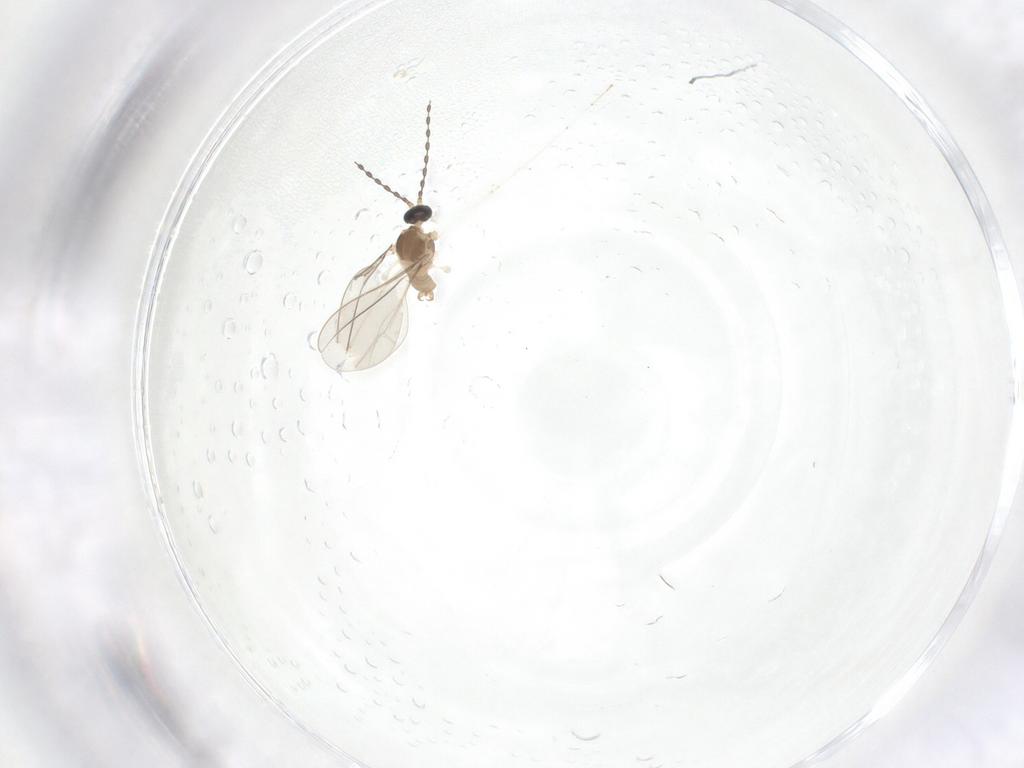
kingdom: Animalia
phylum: Arthropoda
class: Insecta
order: Diptera
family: Cecidomyiidae
